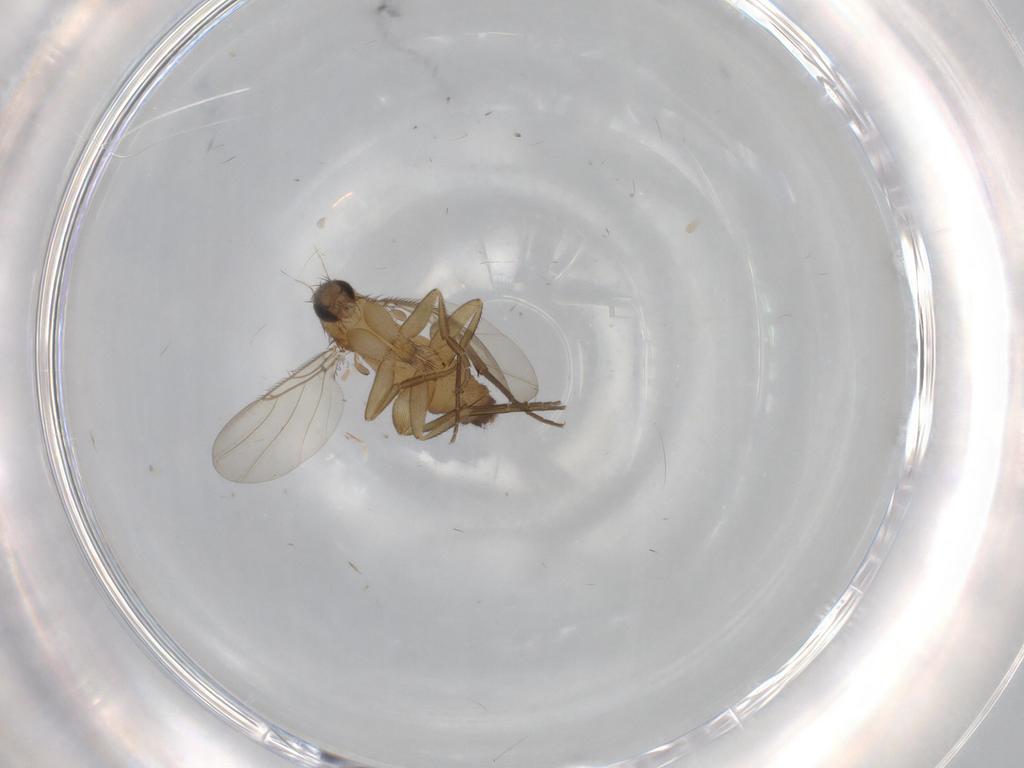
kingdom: Animalia
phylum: Arthropoda
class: Insecta
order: Diptera
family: Phoridae
